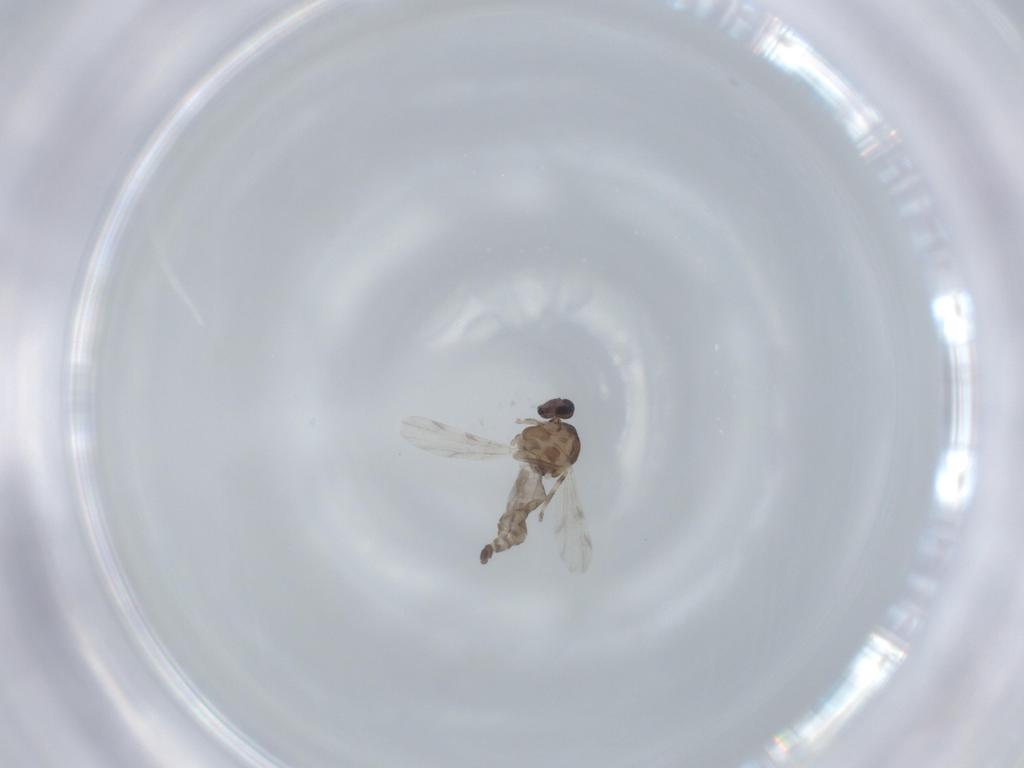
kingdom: Animalia
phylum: Arthropoda
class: Insecta
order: Diptera
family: Ceratopogonidae
